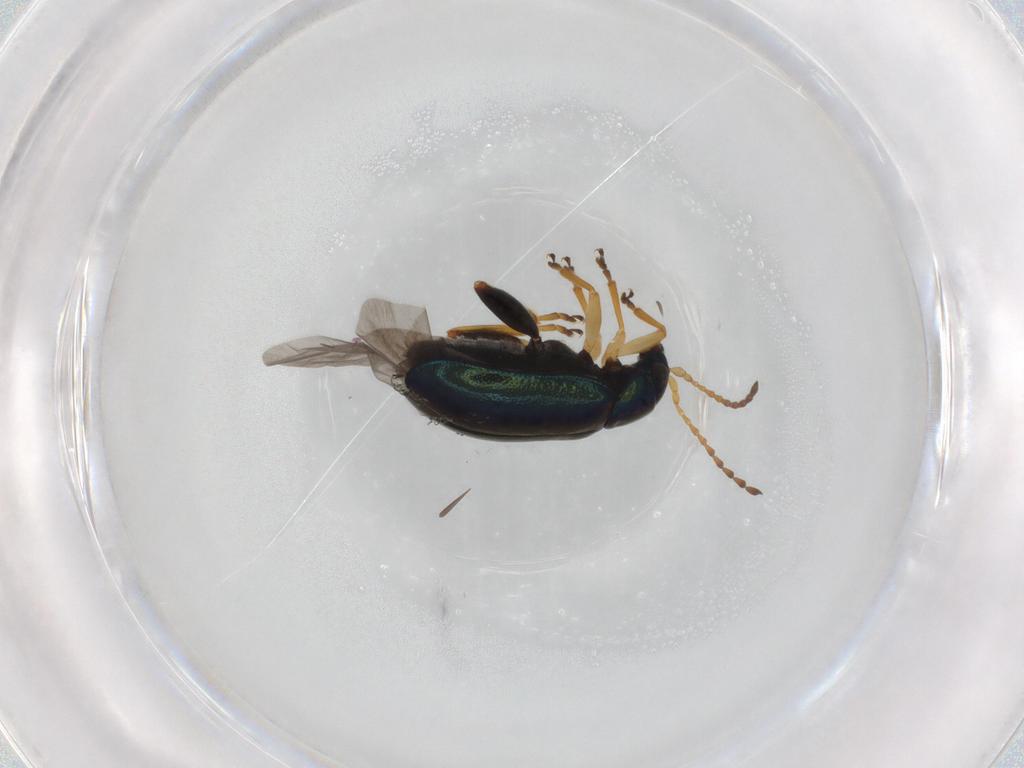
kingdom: Animalia
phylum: Arthropoda
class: Insecta
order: Coleoptera
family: Chrysomelidae
